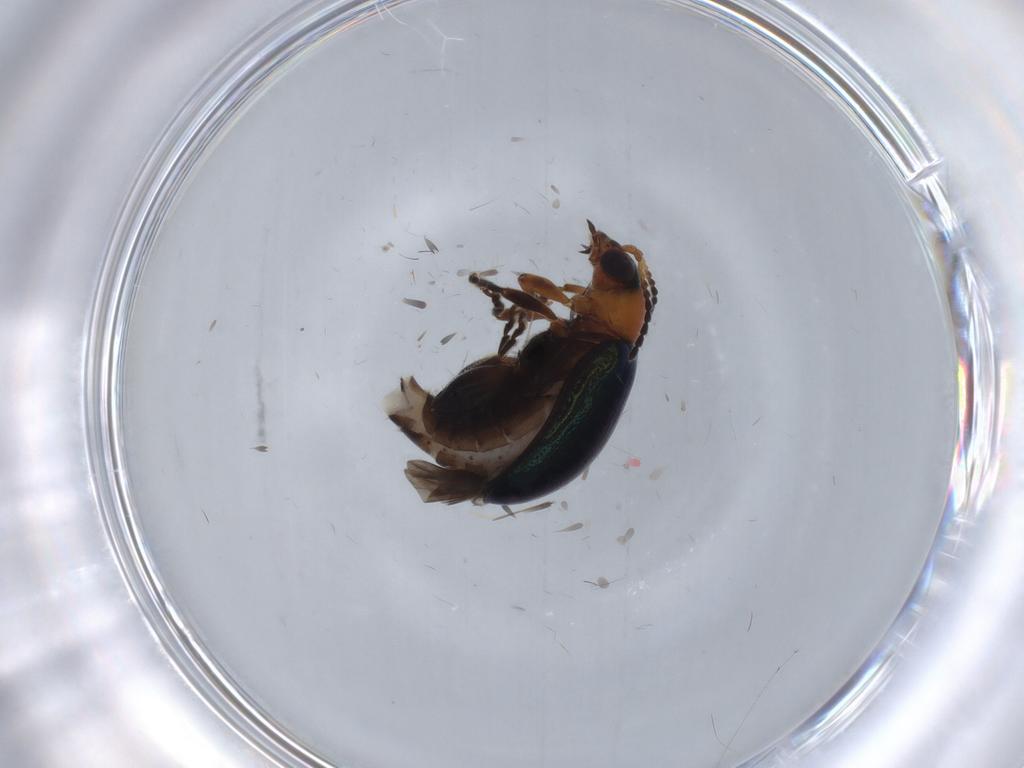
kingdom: Animalia
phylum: Arthropoda
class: Insecta
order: Coleoptera
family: Chrysomelidae
